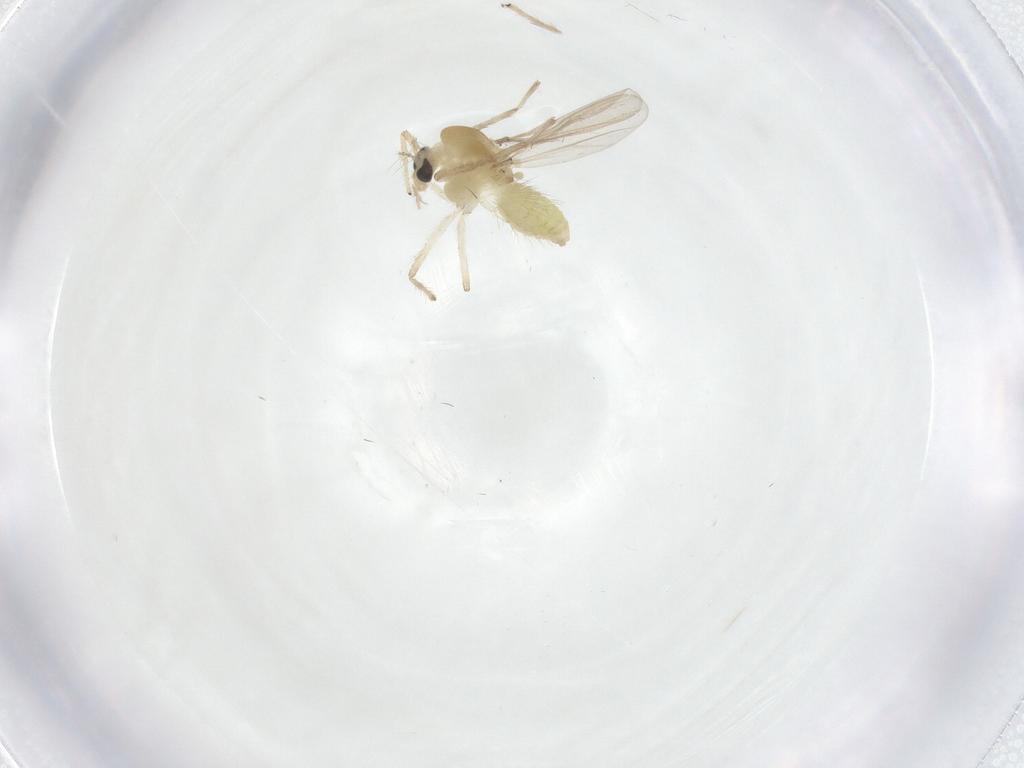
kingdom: Animalia
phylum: Arthropoda
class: Insecta
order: Diptera
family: Chironomidae
